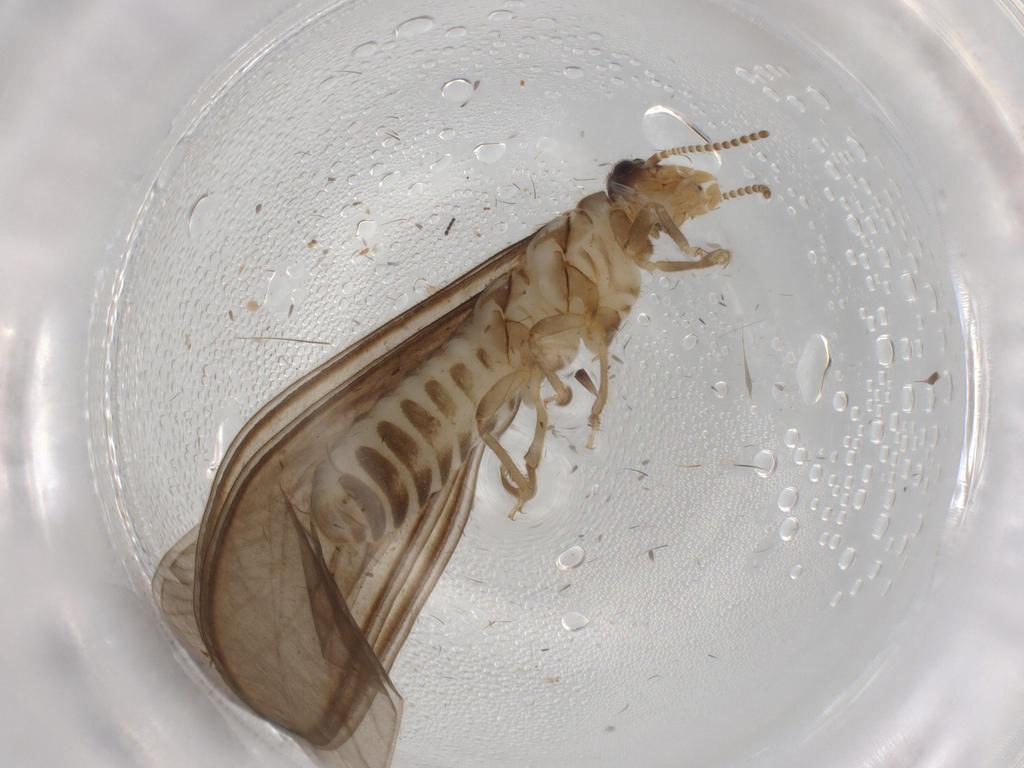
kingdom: Animalia
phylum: Arthropoda
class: Insecta
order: Blattodea
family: Termitidae
